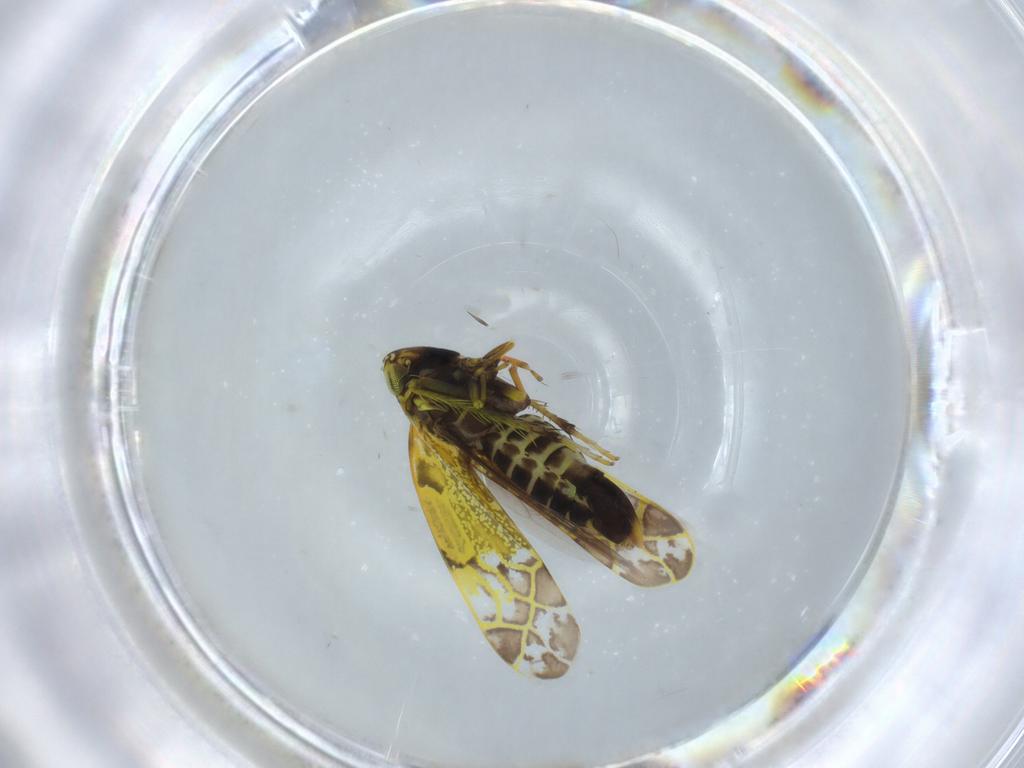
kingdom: Animalia
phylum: Arthropoda
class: Insecta
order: Hemiptera
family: Cicadellidae
